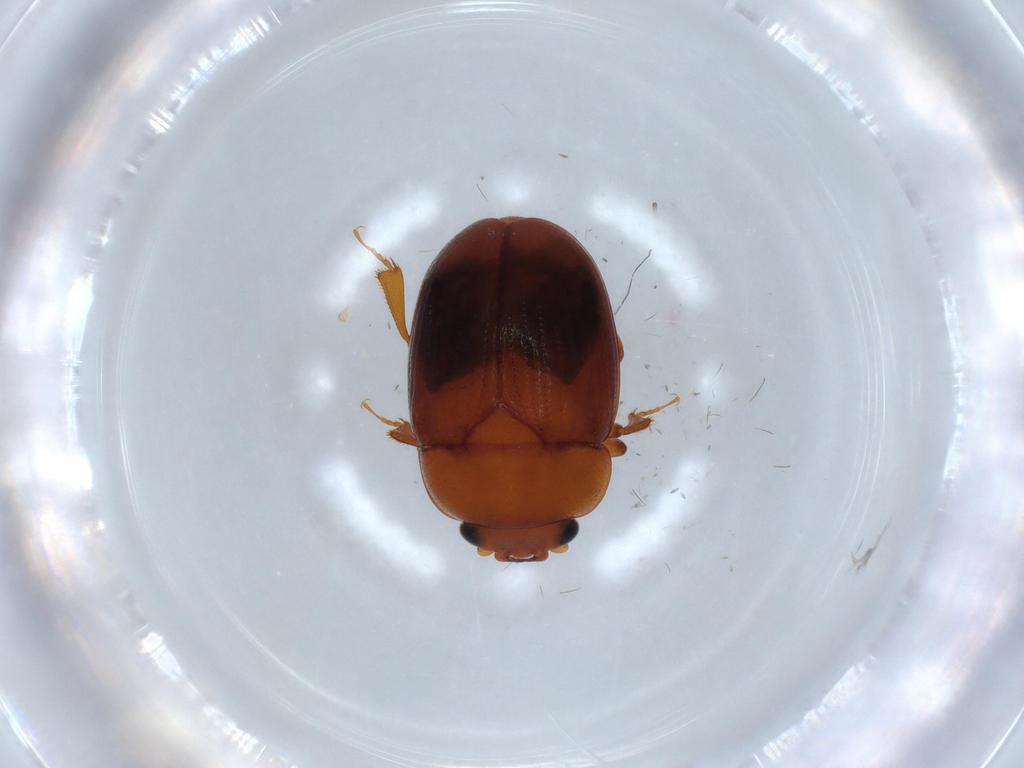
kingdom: Animalia
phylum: Arthropoda
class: Insecta
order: Coleoptera
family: Nitidulidae
